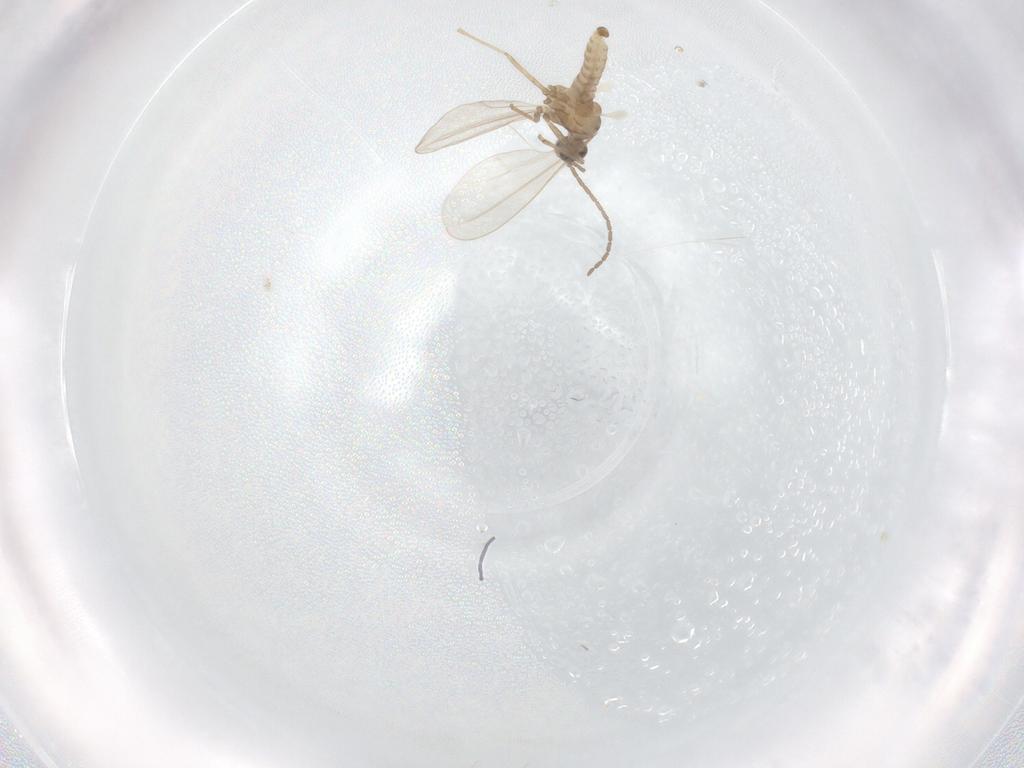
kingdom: Animalia
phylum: Arthropoda
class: Insecta
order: Diptera
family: Cecidomyiidae
